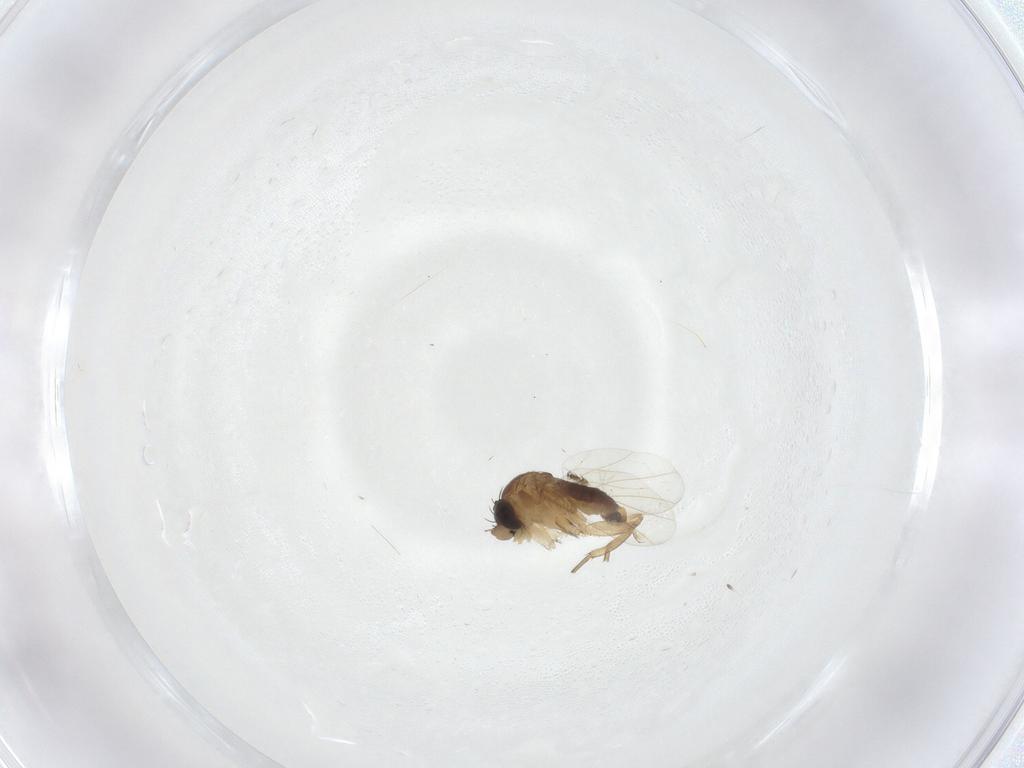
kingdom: Animalia
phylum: Arthropoda
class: Insecta
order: Diptera
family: Phoridae
